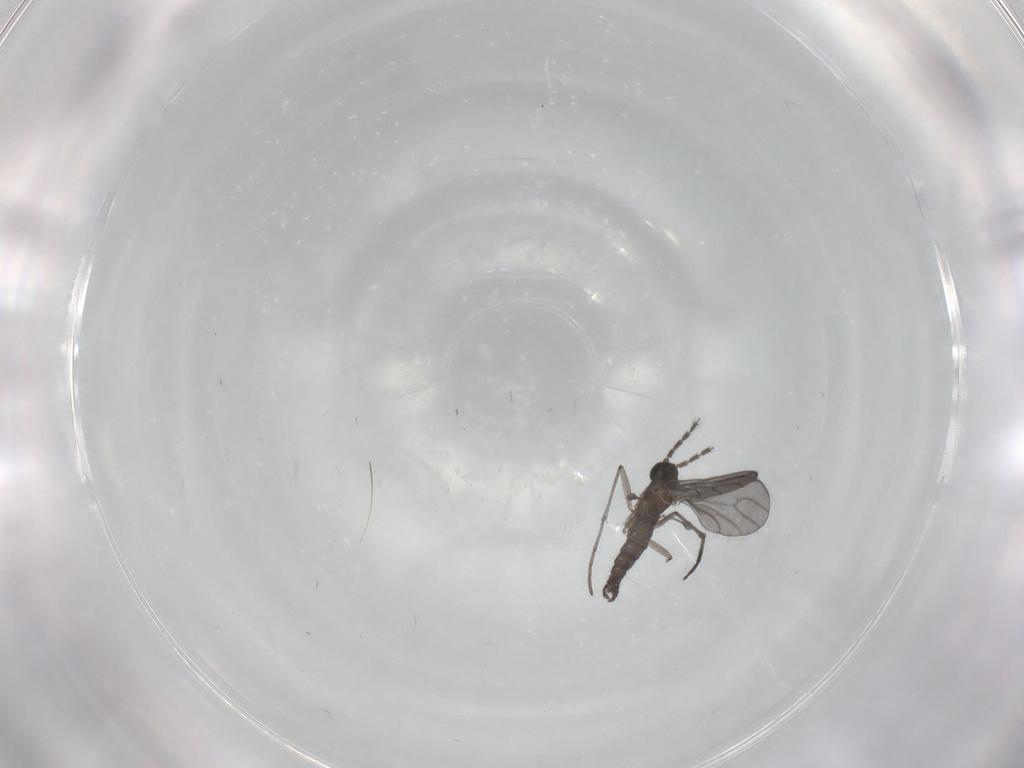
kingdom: Animalia
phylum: Arthropoda
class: Insecta
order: Diptera
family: Sciaridae
